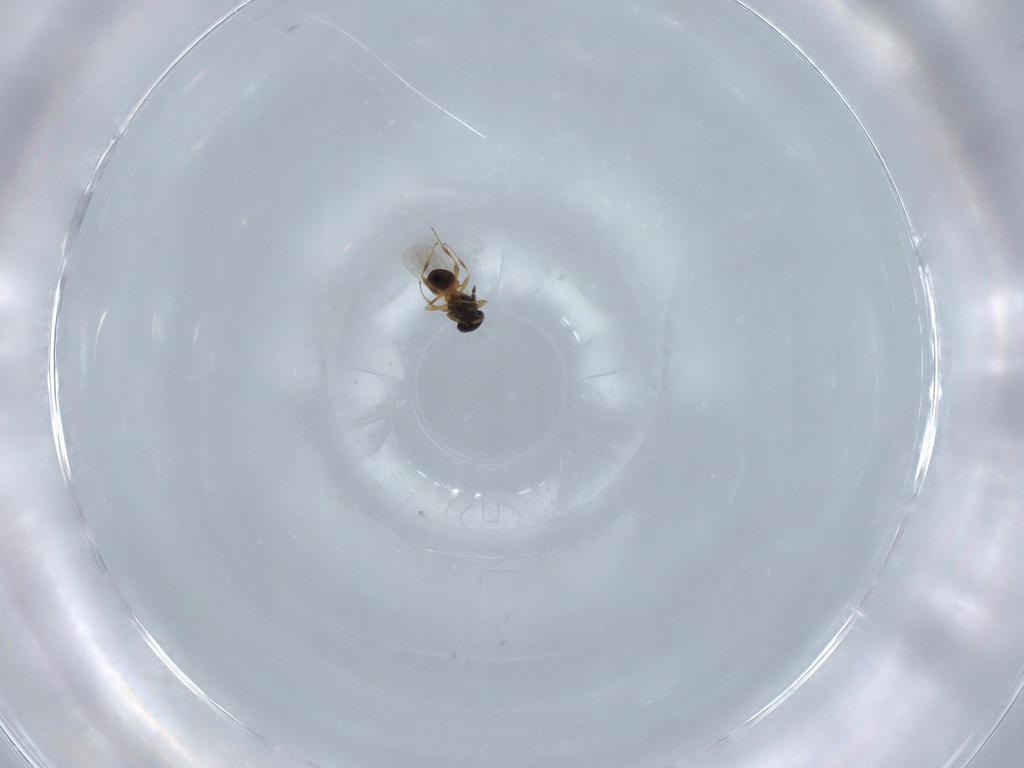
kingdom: Animalia
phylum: Arthropoda
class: Insecta
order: Hymenoptera
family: Platygastridae
